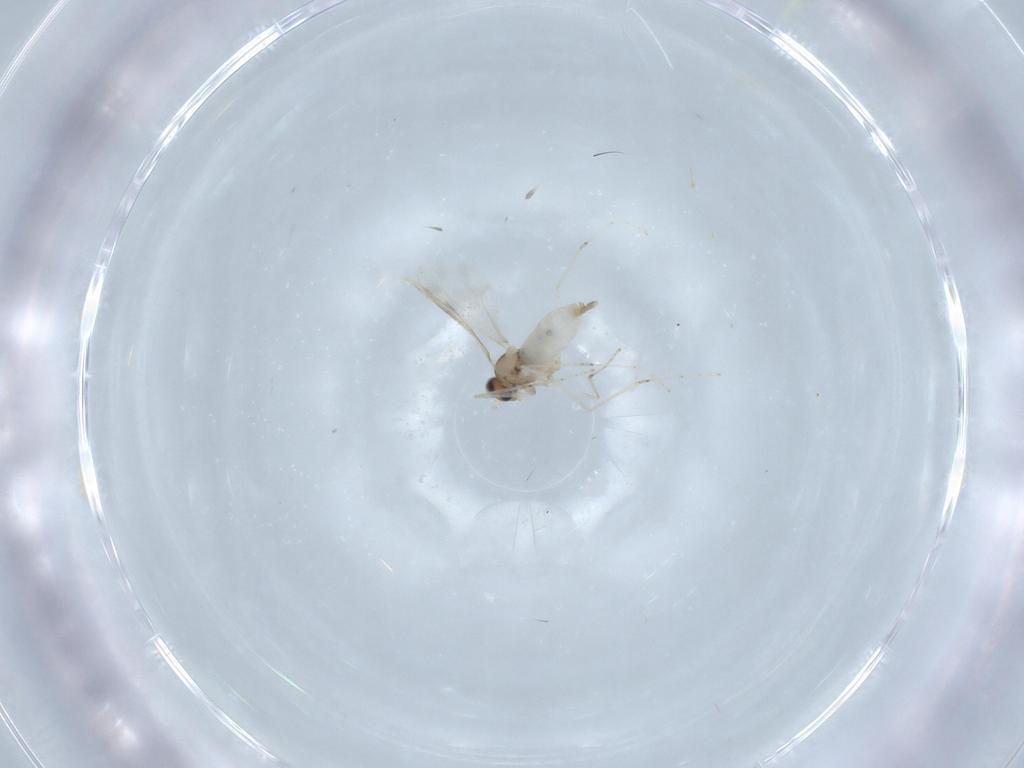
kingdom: Animalia
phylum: Arthropoda
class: Insecta
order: Diptera
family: Cecidomyiidae
